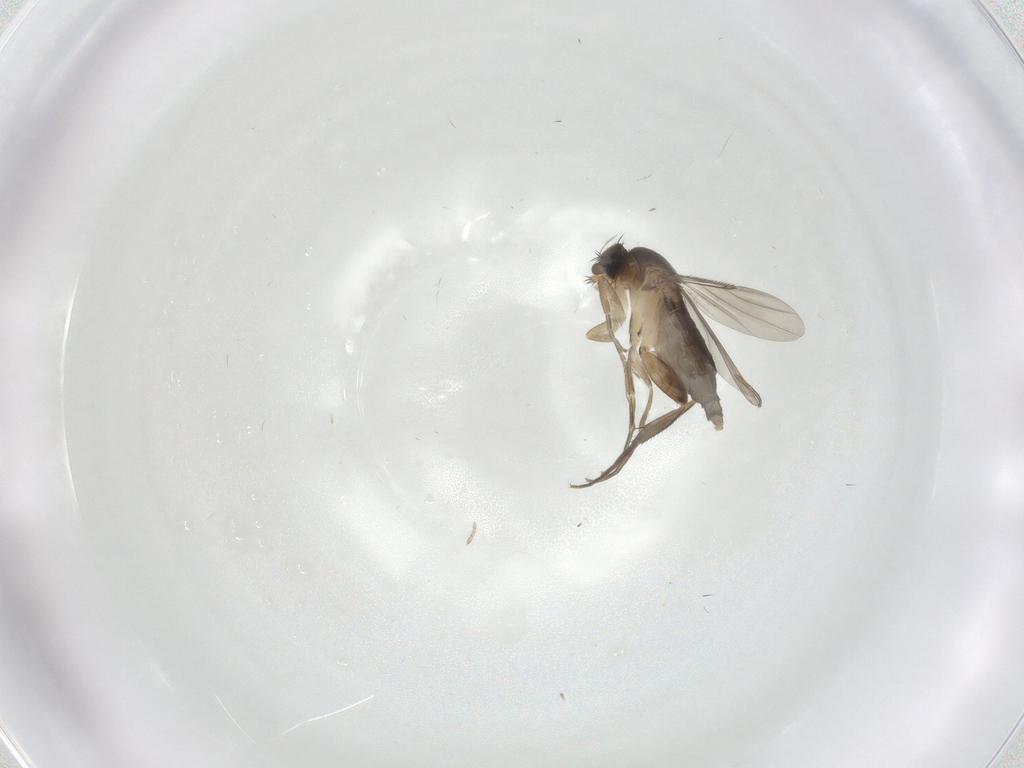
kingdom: Animalia
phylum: Arthropoda
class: Insecta
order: Diptera
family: Phoridae
